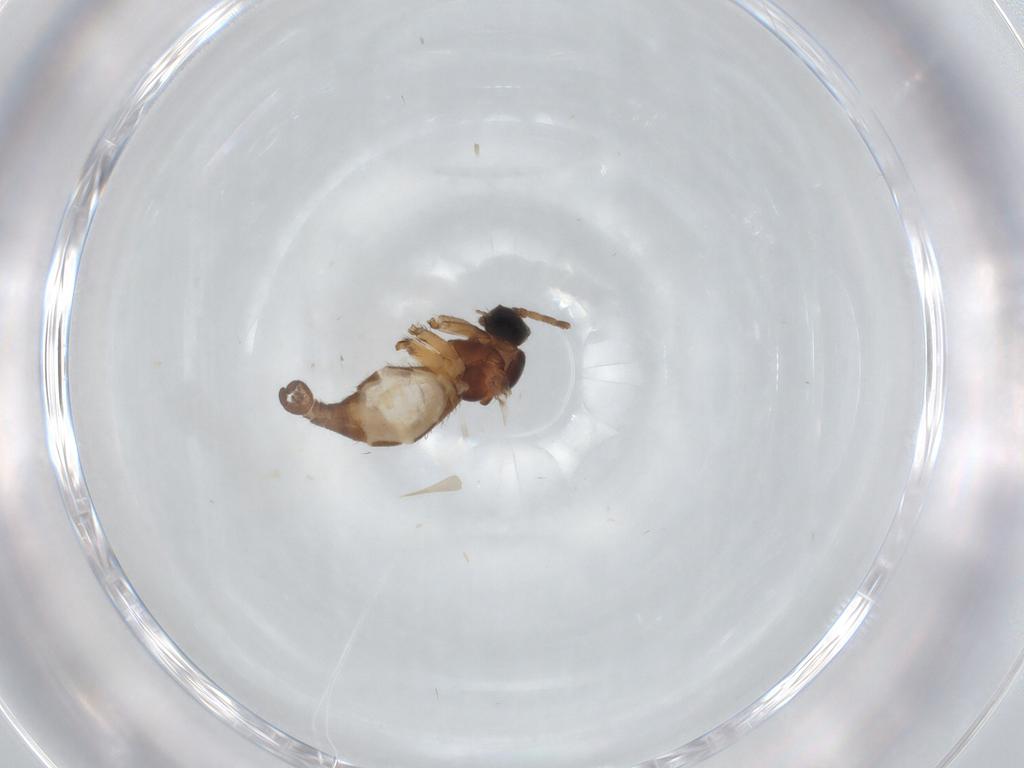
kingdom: Animalia
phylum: Arthropoda
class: Insecta
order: Diptera
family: Sciaridae
